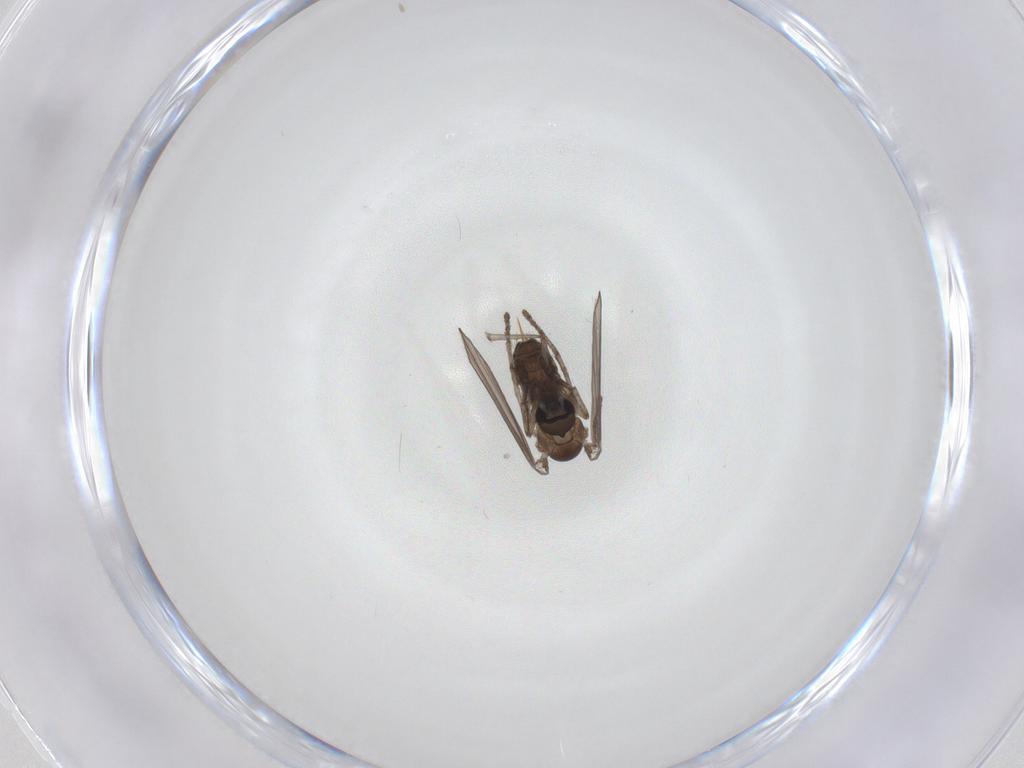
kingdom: Animalia
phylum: Arthropoda
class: Insecta
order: Diptera
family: Psychodidae
